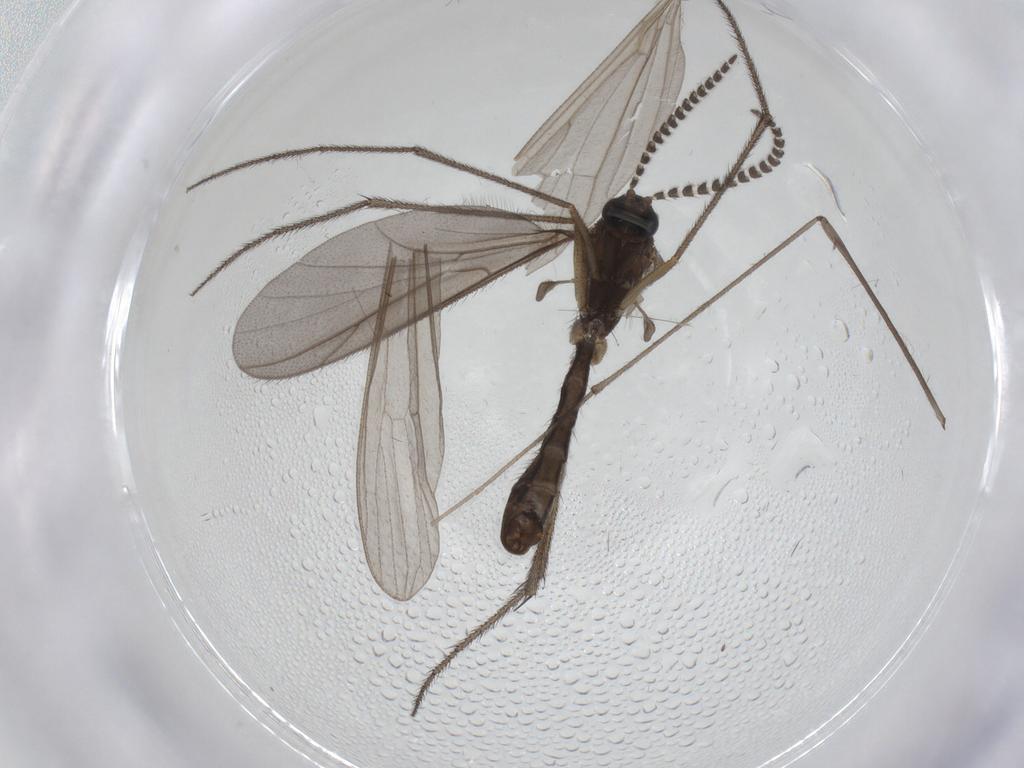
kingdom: Animalia
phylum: Arthropoda
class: Insecta
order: Diptera
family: Ditomyiidae
